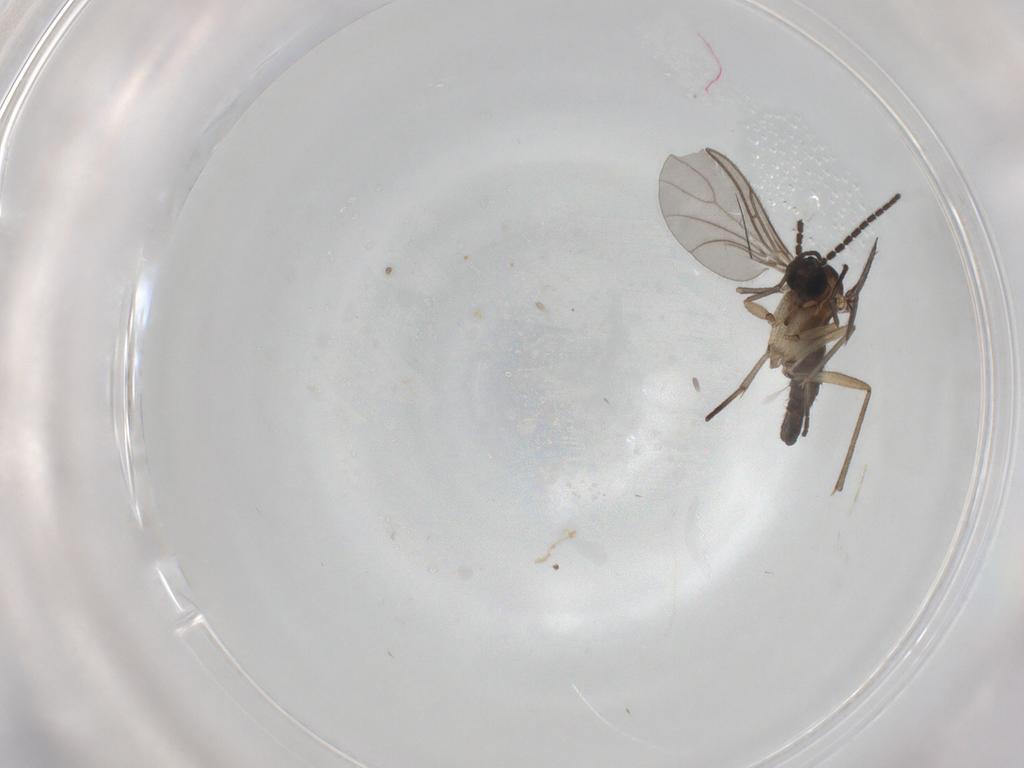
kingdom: Animalia
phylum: Arthropoda
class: Insecta
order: Diptera
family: Cecidomyiidae
